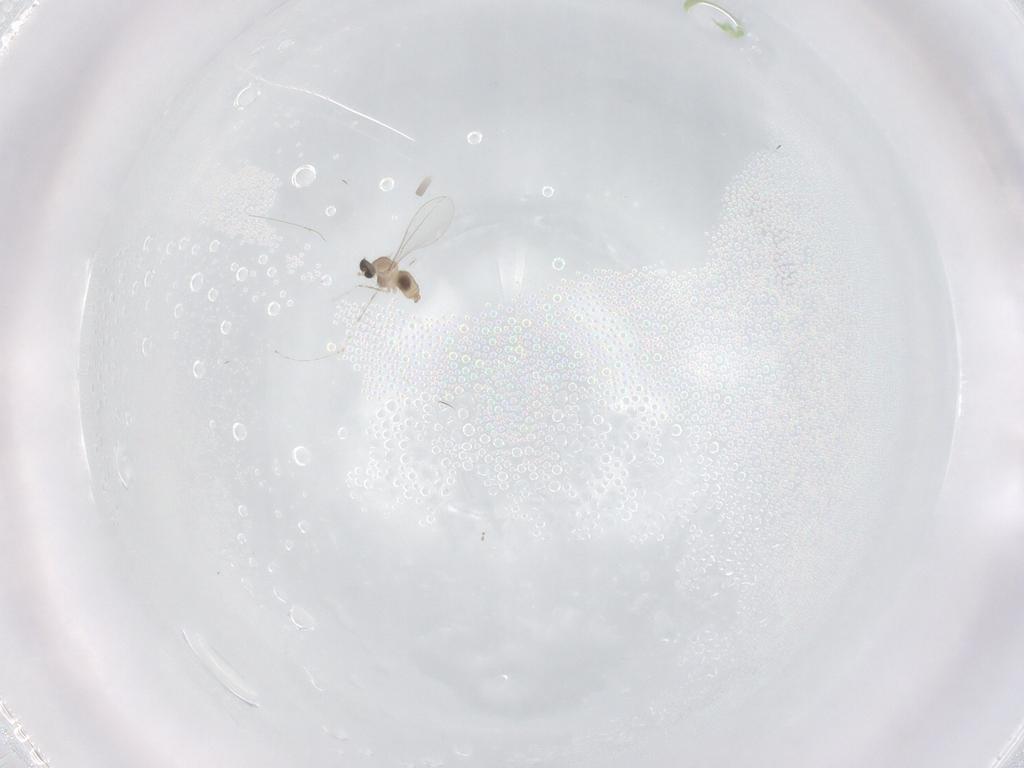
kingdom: Animalia
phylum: Arthropoda
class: Insecta
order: Diptera
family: Cecidomyiidae
